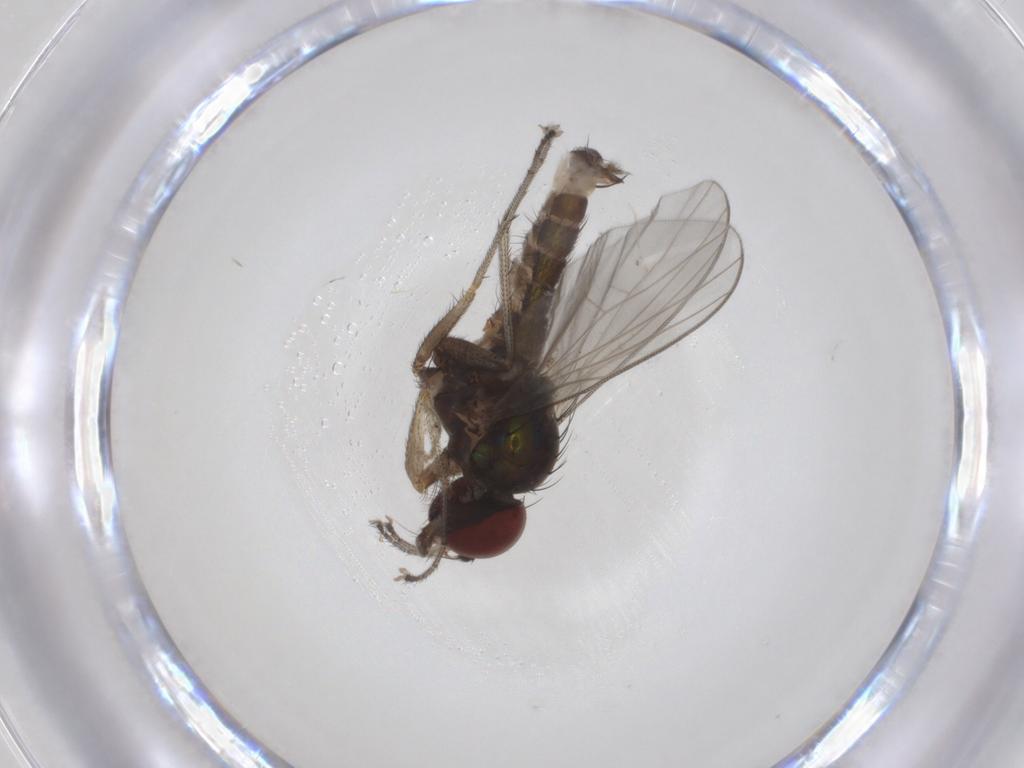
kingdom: Animalia
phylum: Arthropoda
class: Insecta
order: Diptera
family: Dolichopodidae
